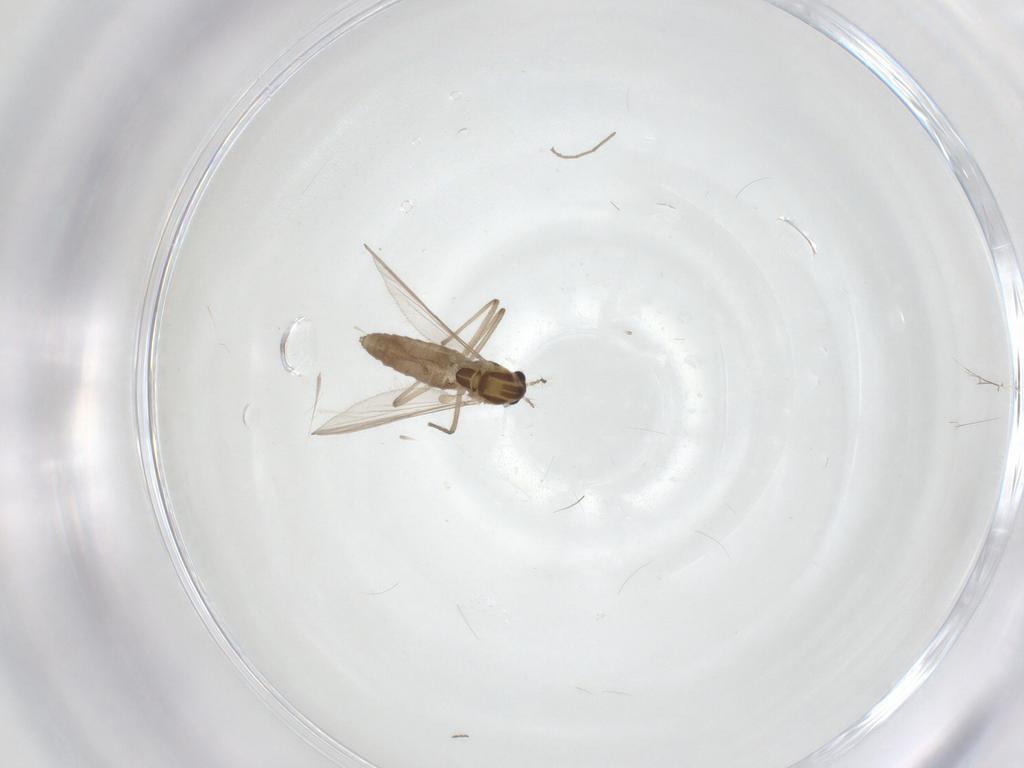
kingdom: Animalia
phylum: Arthropoda
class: Insecta
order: Diptera
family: Chironomidae
